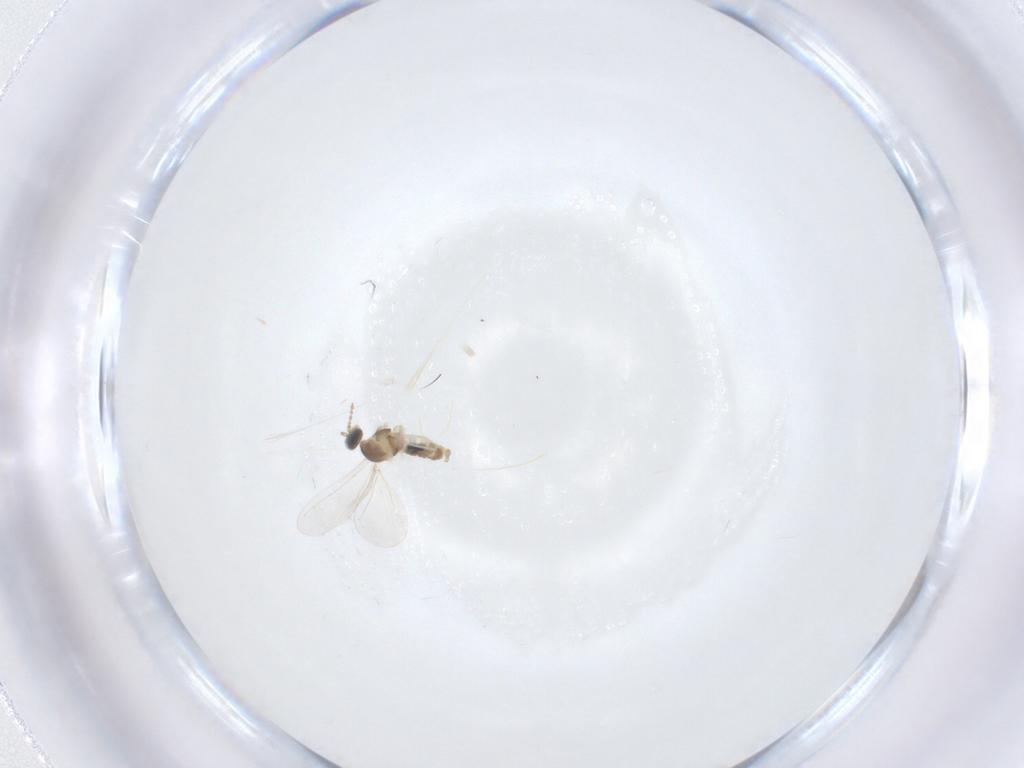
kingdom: Animalia
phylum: Arthropoda
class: Insecta
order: Diptera
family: Cecidomyiidae
